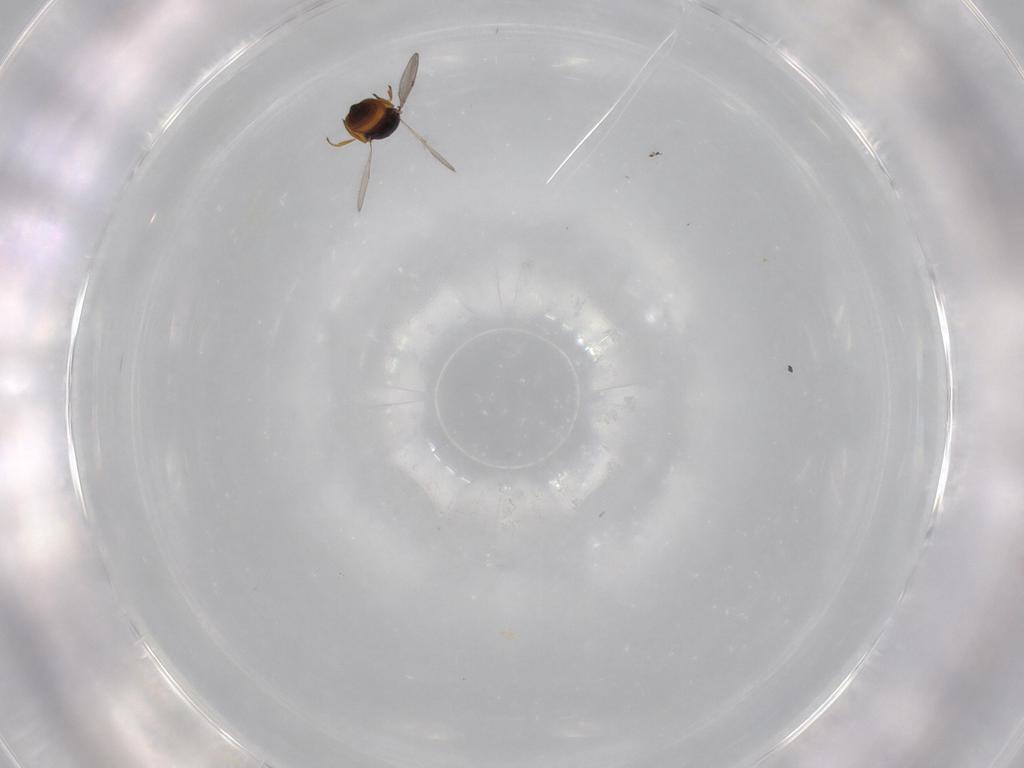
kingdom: Animalia
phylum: Arthropoda
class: Insecta
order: Hymenoptera
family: Scelionidae
